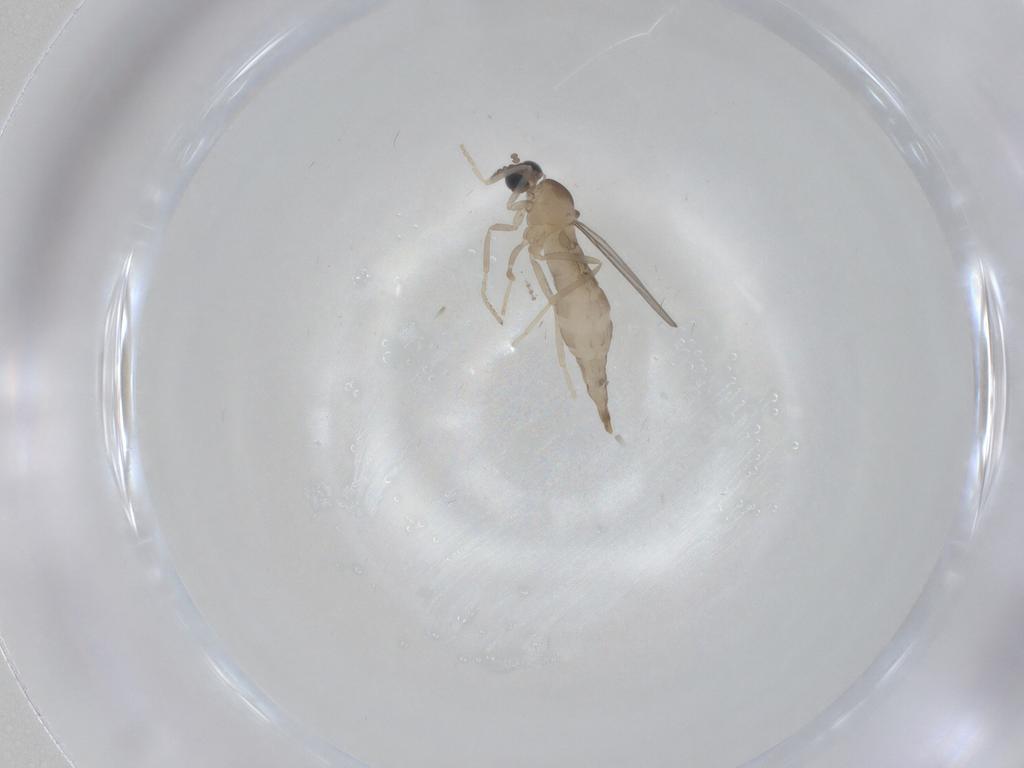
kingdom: Animalia
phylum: Arthropoda
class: Insecta
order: Diptera
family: Cecidomyiidae
